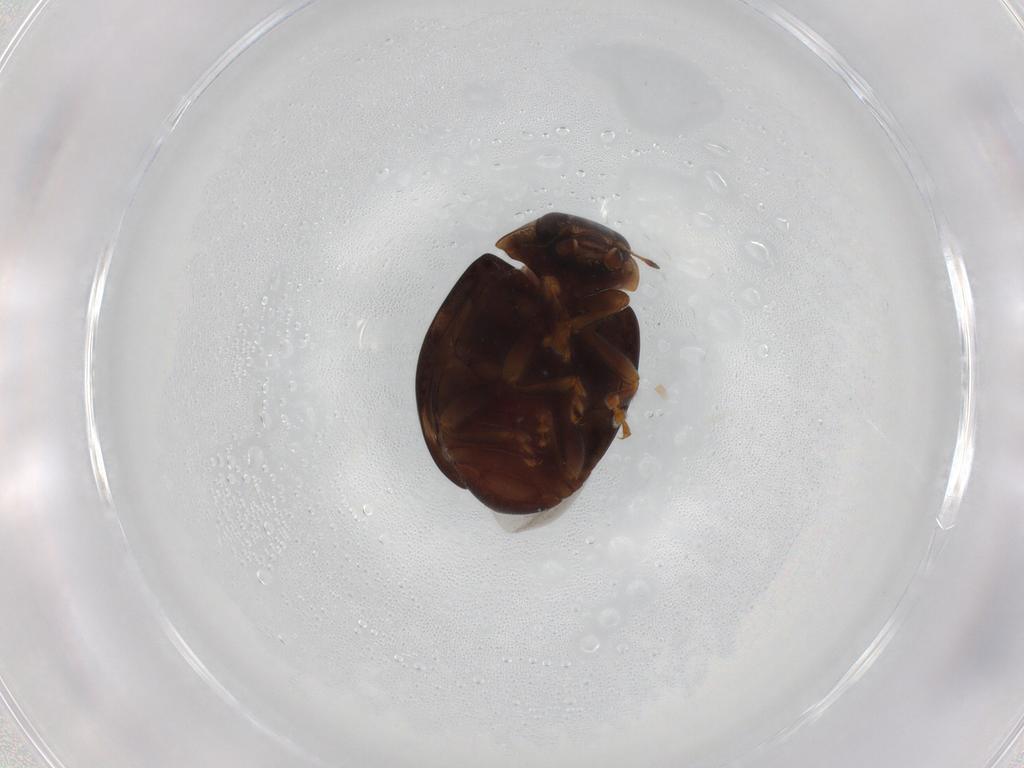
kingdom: Animalia
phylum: Arthropoda
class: Insecta
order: Coleoptera
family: Coccinellidae
